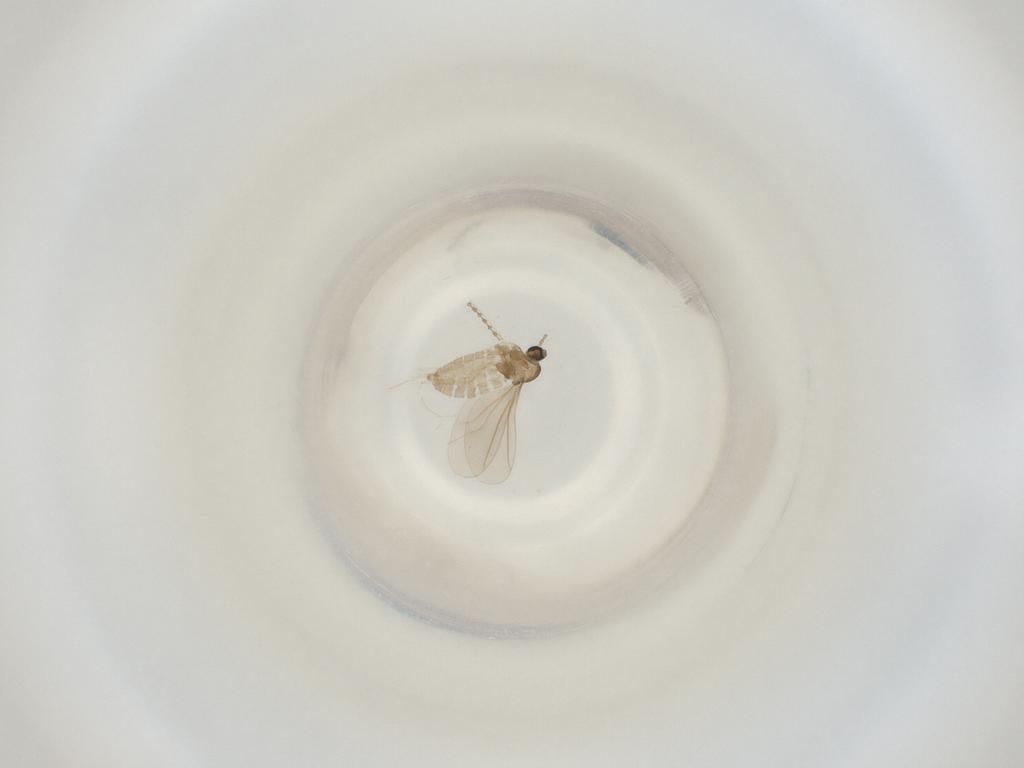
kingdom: Animalia
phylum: Arthropoda
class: Insecta
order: Diptera
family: Cecidomyiidae
